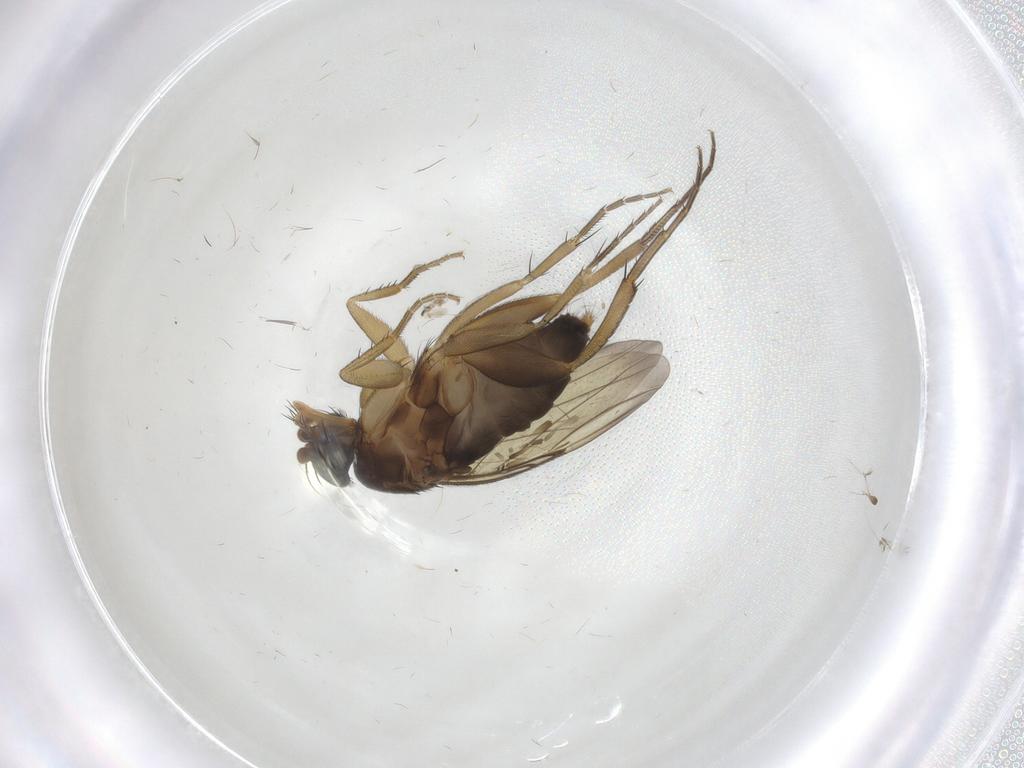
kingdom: Animalia
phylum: Arthropoda
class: Insecta
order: Diptera
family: Phoridae
